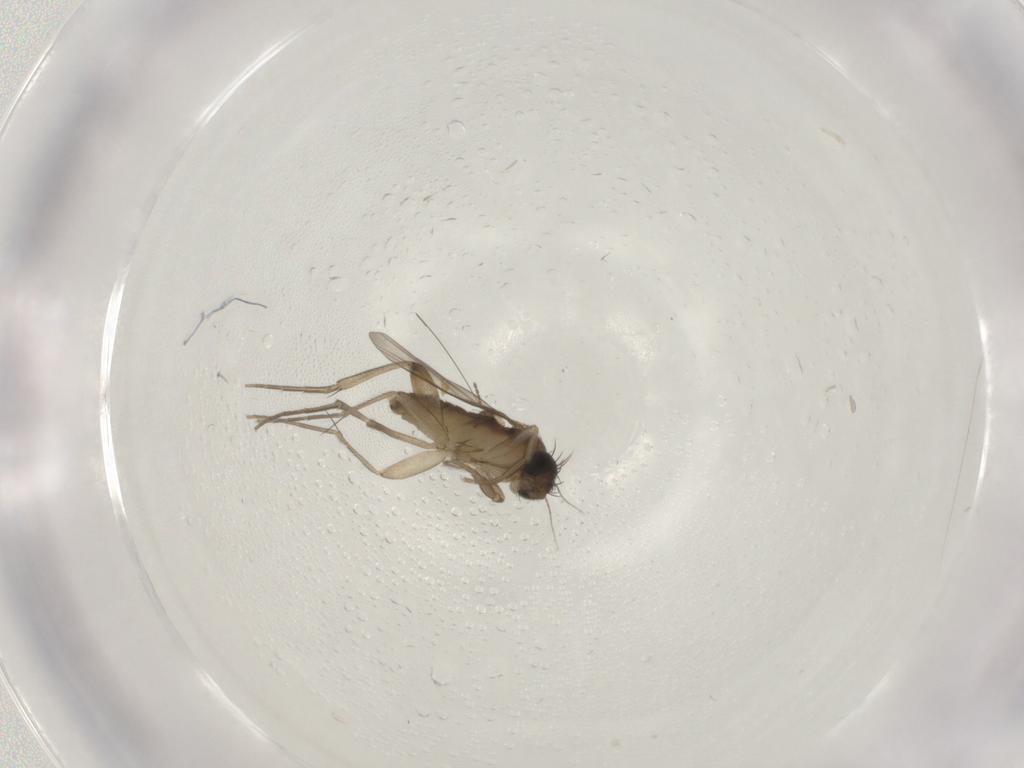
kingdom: Animalia
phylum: Arthropoda
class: Insecta
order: Diptera
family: Phoridae
